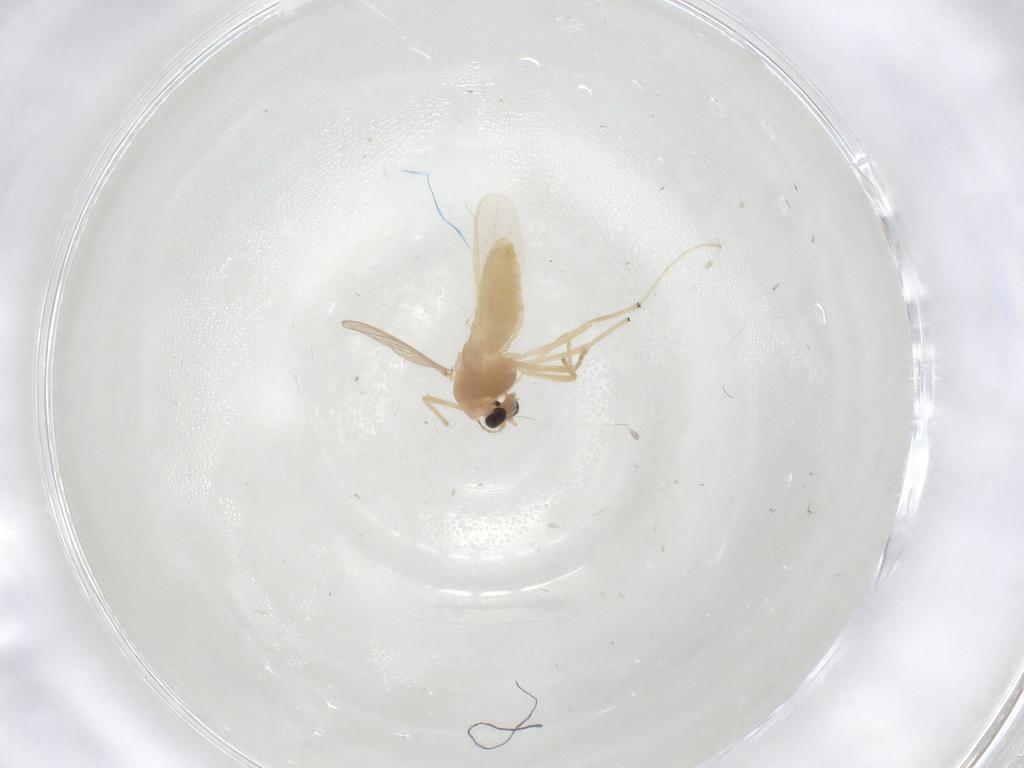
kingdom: Animalia
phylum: Arthropoda
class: Insecta
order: Diptera
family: Chironomidae
